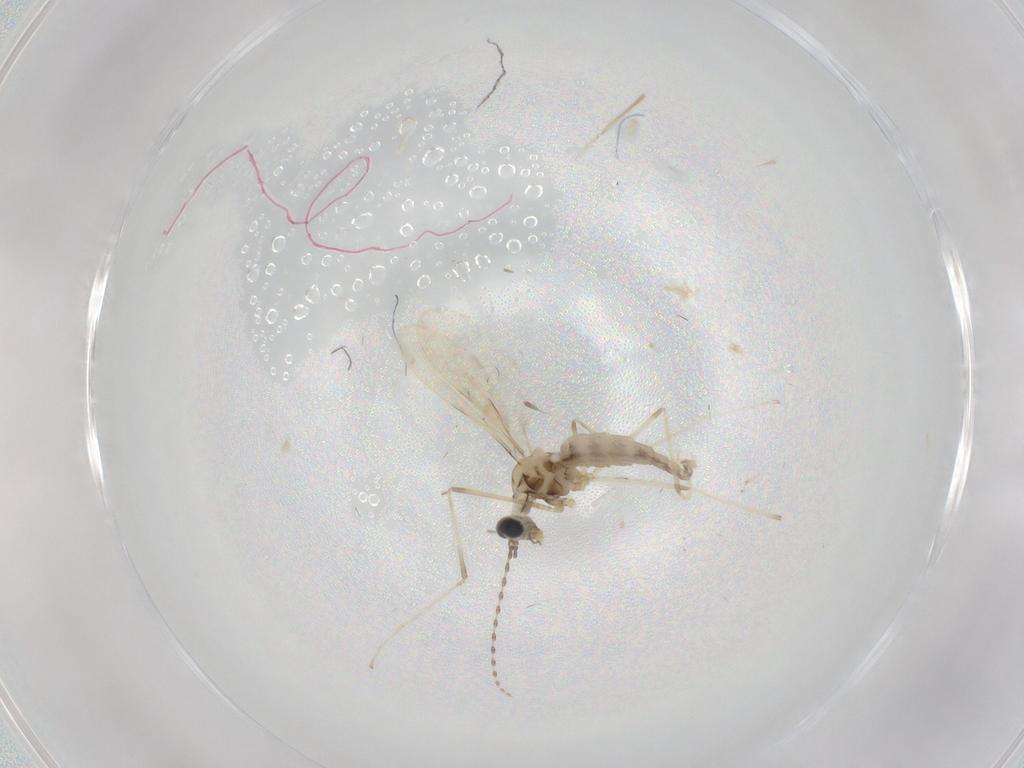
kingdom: Animalia
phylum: Arthropoda
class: Insecta
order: Diptera
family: Cecidomyiidae
